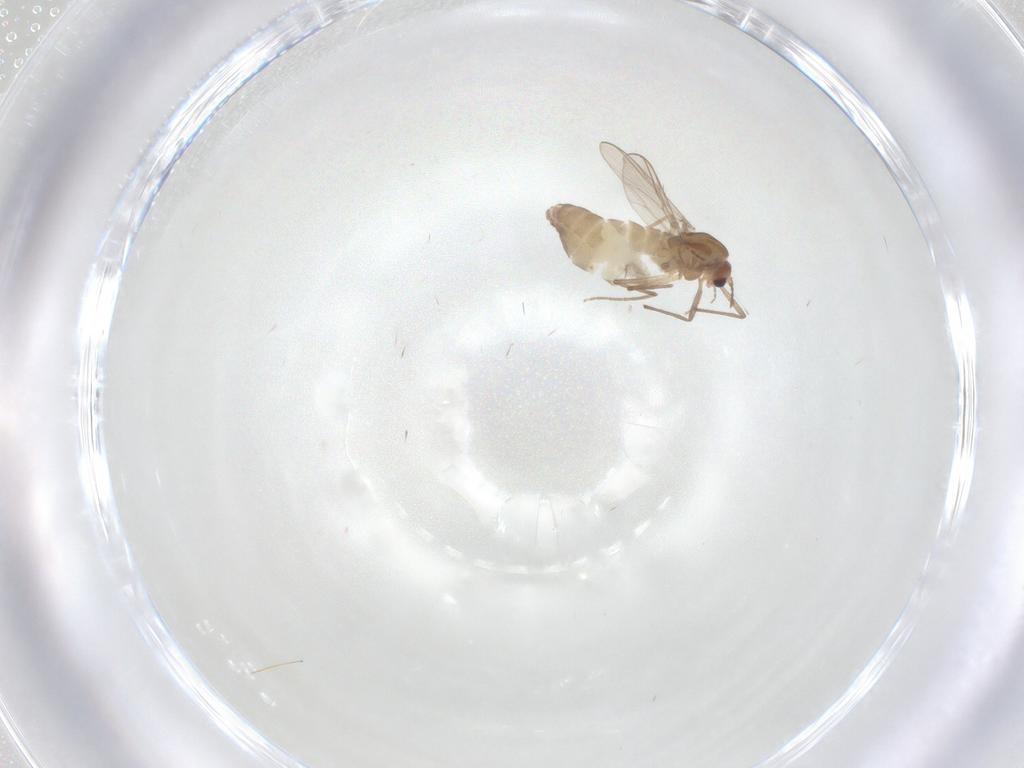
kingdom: Animalia
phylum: Arthropoda
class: Insecta
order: Diptera
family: Chironomidae
